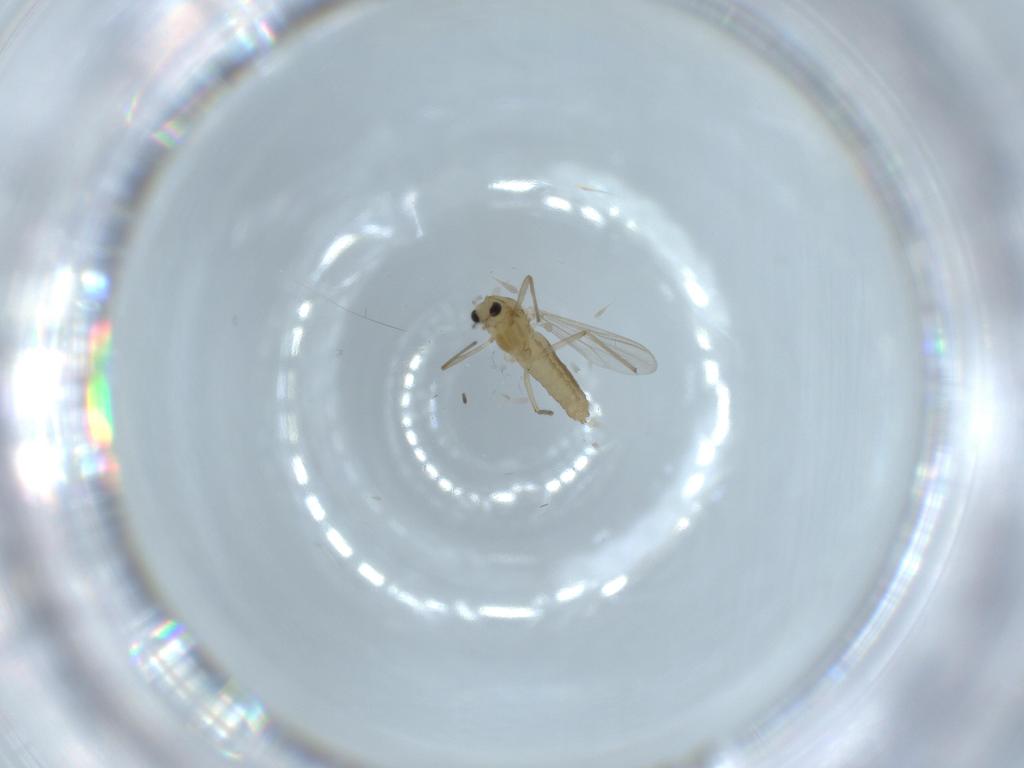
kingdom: Animalia
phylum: Arthropoda
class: Insecta
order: Diptera
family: Chironomidae
